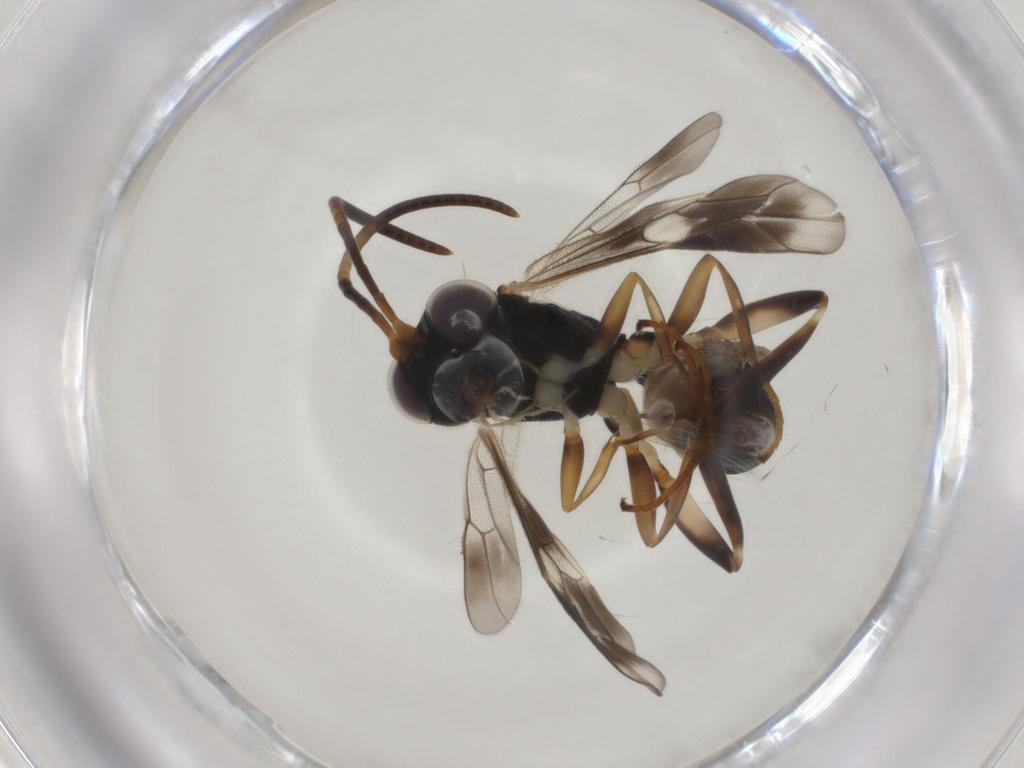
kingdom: Animalia
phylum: Arthropoda
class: Insecta
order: Hymenoptera
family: Ichneumonidae
